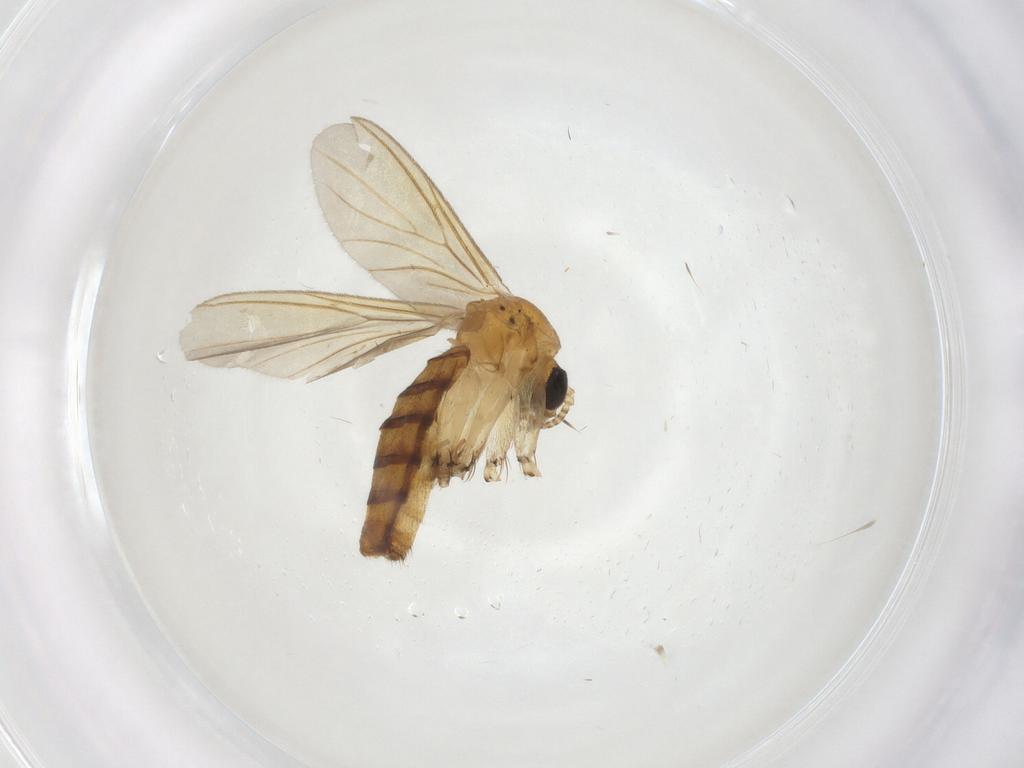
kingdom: Animalia
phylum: Arthropoda
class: Insecta
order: Diptera
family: Mycetophilidae
